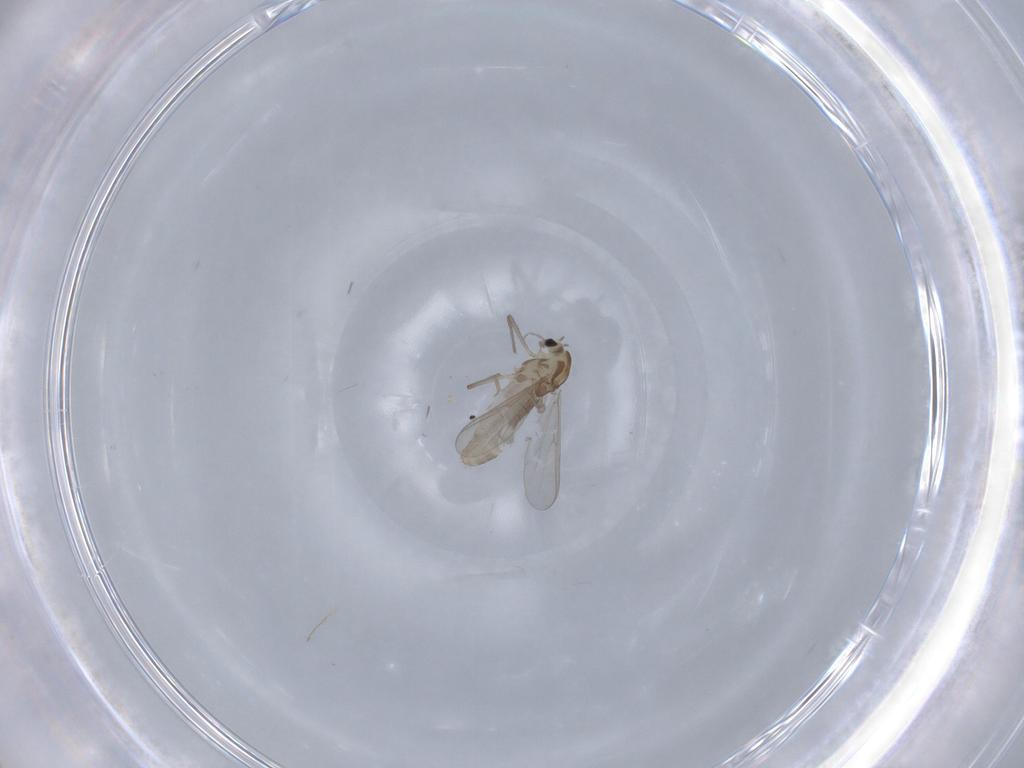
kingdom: Animalia
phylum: Arthropoda
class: Insecta
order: Diptera
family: Chironomidae
